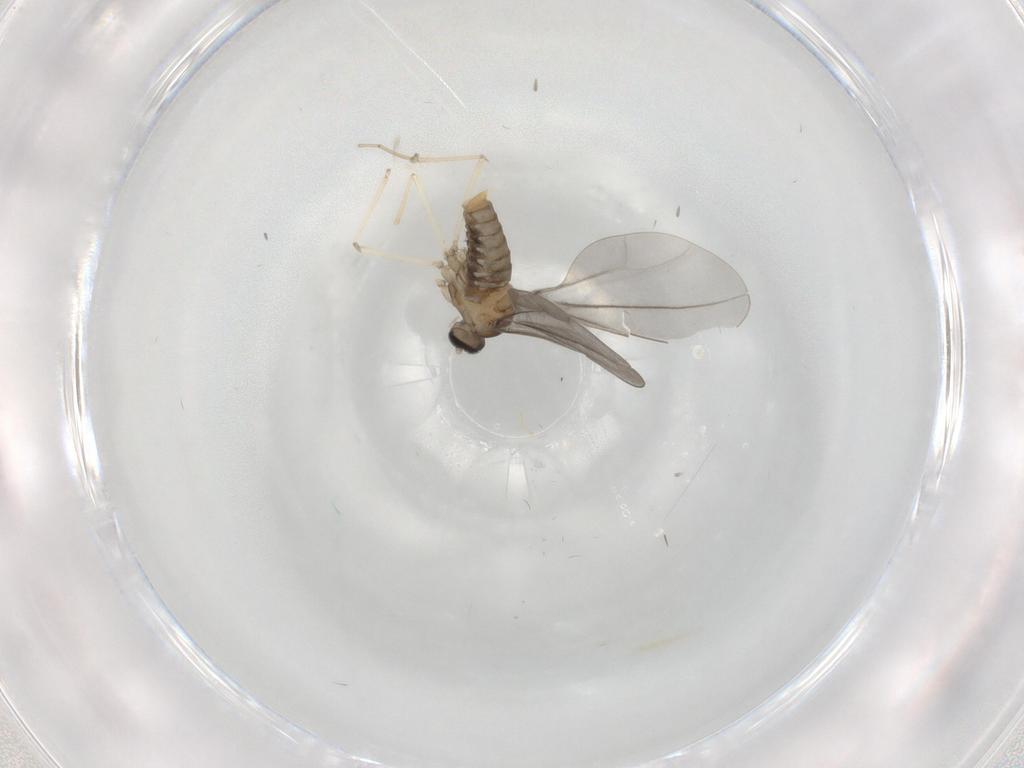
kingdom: Animalia
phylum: Arthropoda
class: Insecta
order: Diptera
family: Cecidomyiidae
